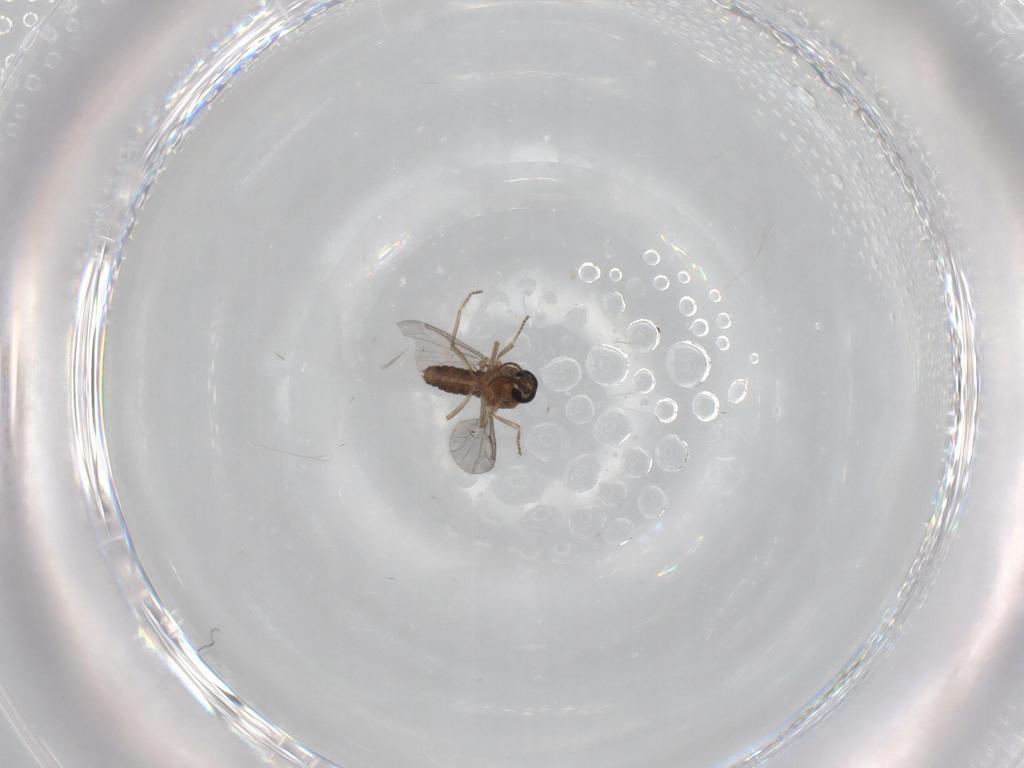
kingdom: Animalia
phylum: Arthropoda
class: Insecta
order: Diptera
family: Ceratopogonidae
